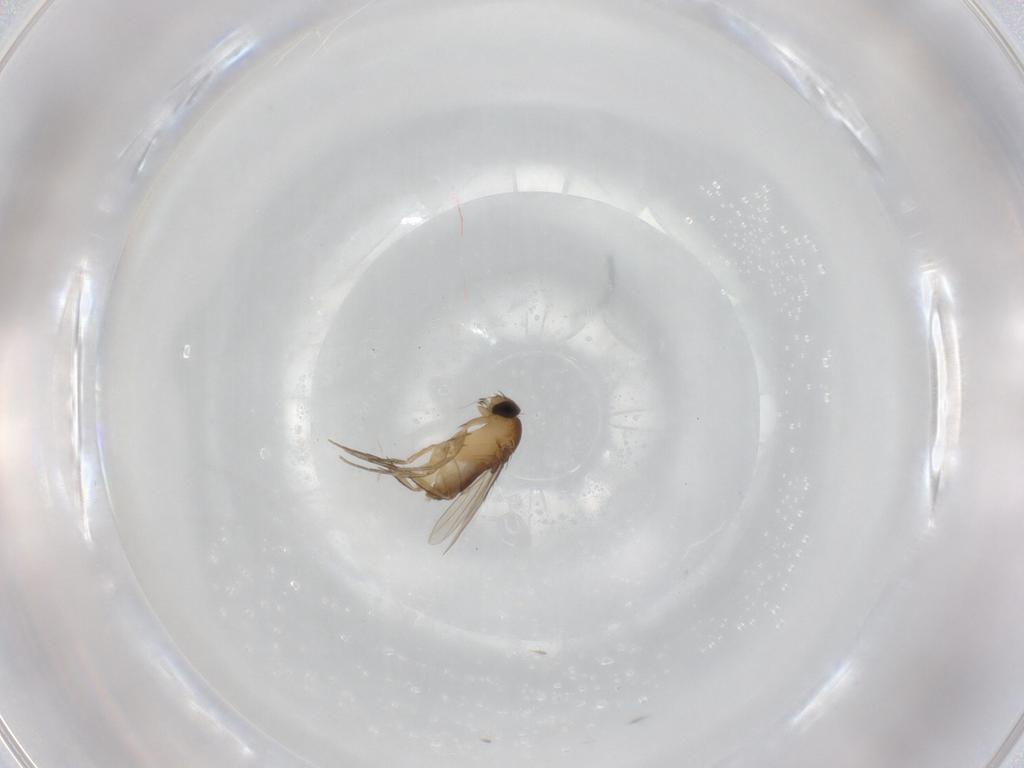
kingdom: Animalia
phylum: Arthropoda
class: Insecta
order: Diptera
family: Phoridae
